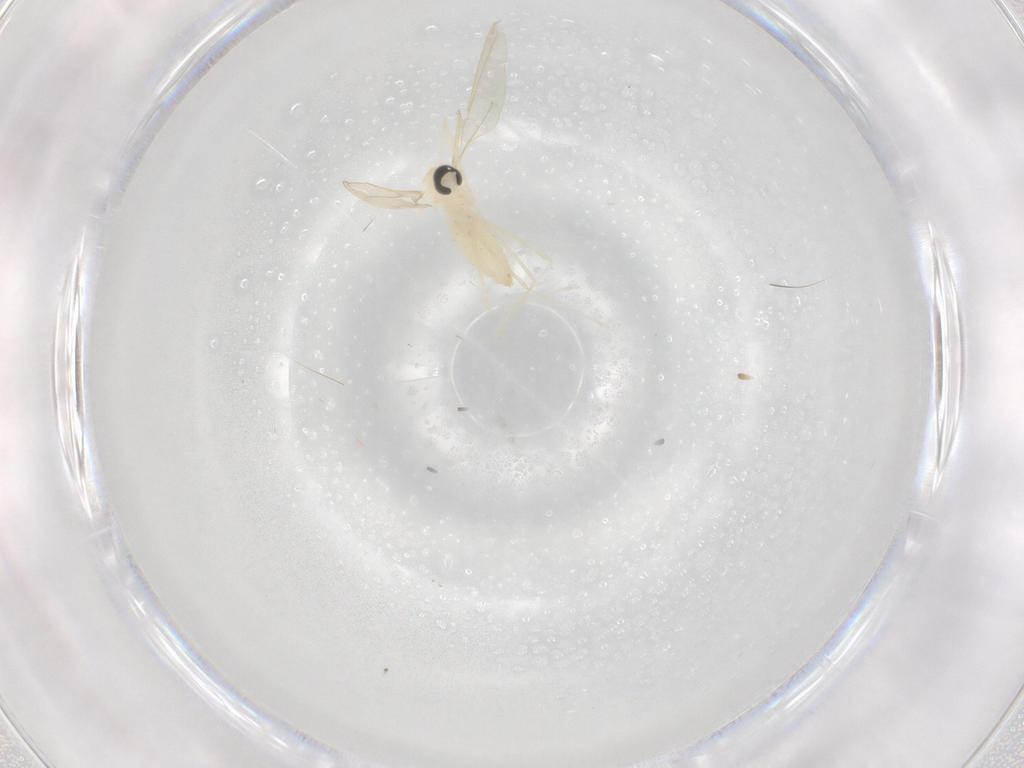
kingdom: Animalia
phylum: Arthropoda
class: Insecta
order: Diptera
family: Cecidomyiidae
